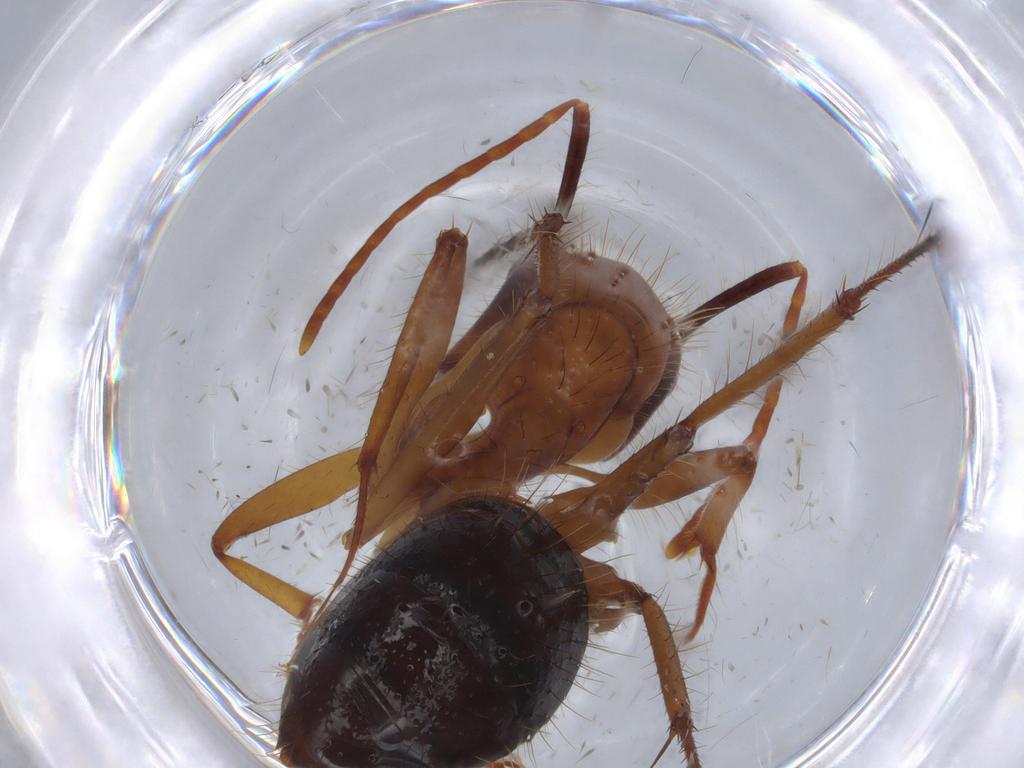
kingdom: Animalia
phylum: Arthropoda
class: Insecta
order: Hymenoptera
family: Formicidae
